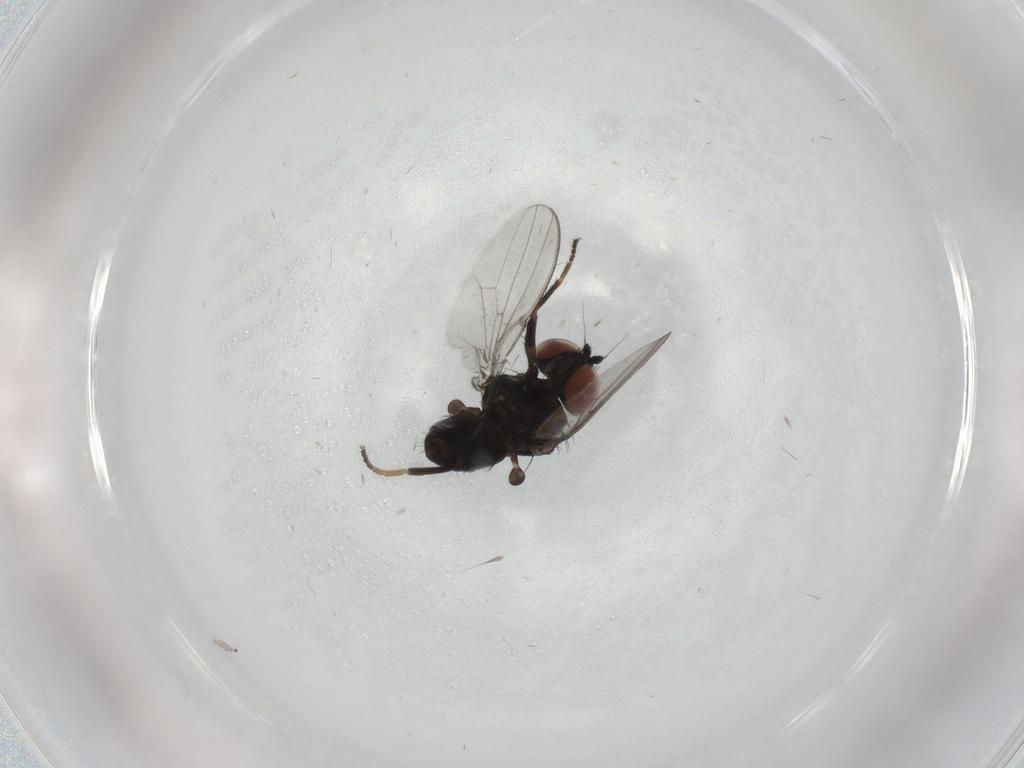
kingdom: Animalia
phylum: Arthropoda
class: Insecta
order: Diptera
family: Milichiidae
